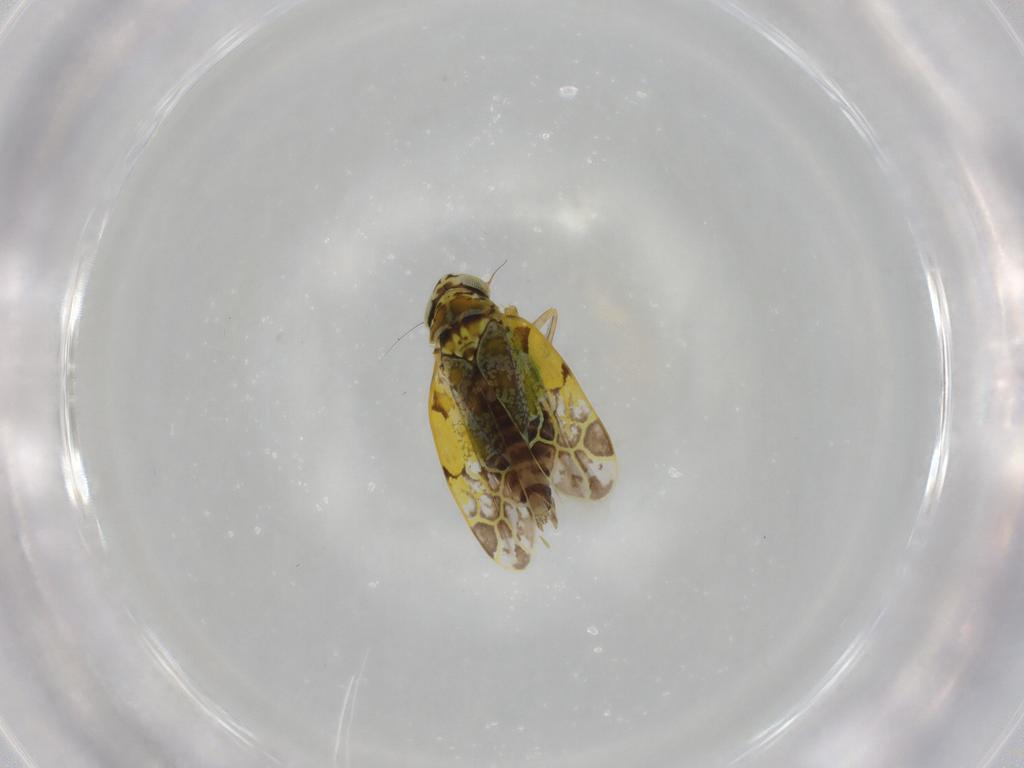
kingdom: Animalia
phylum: Arthropoda
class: Insecta
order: Hemiptera
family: Cicadellidae
